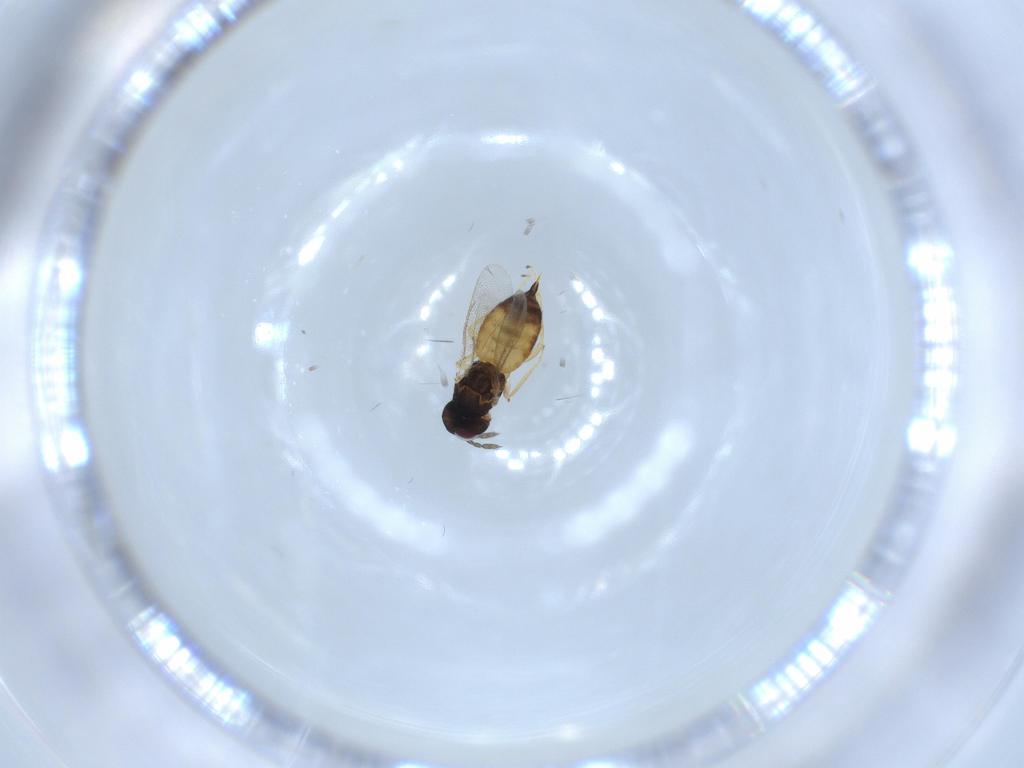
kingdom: Animalia
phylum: Arthropoda
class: Insecta
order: Hymenoptera
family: Eulophidae
